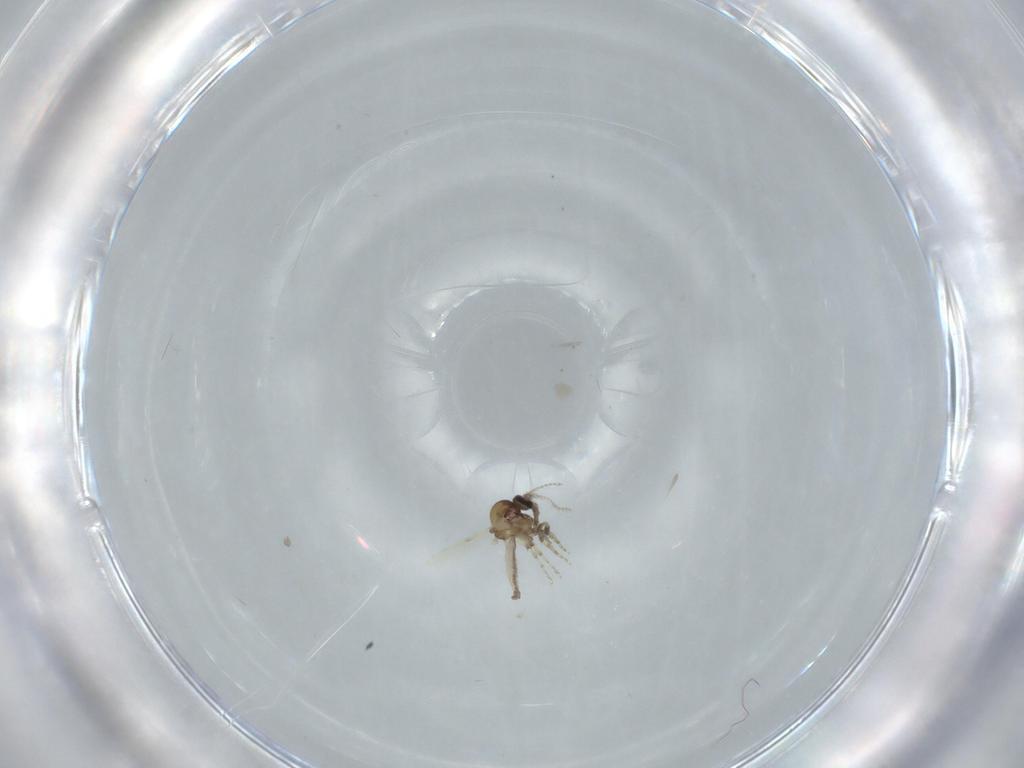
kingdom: Animalia
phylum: Arthropoda
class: Insecta
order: Diptera
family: Ceratopogonidae
